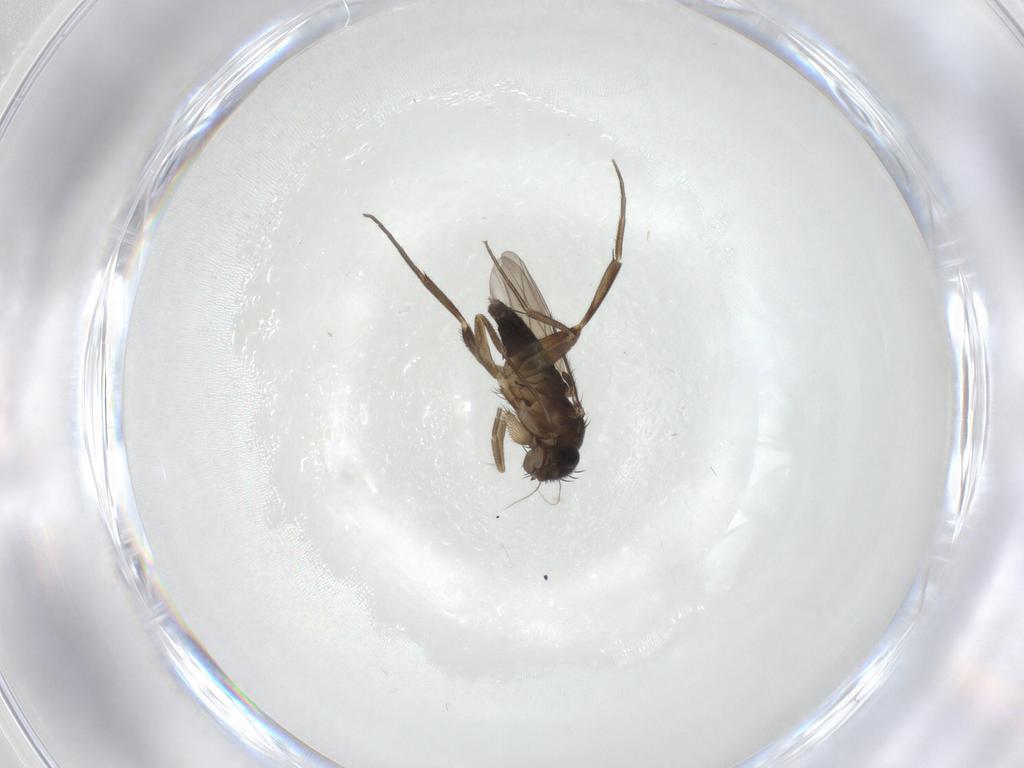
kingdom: Animalia
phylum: Arthropoda
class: Insecta
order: Diptera
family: Phoridae
